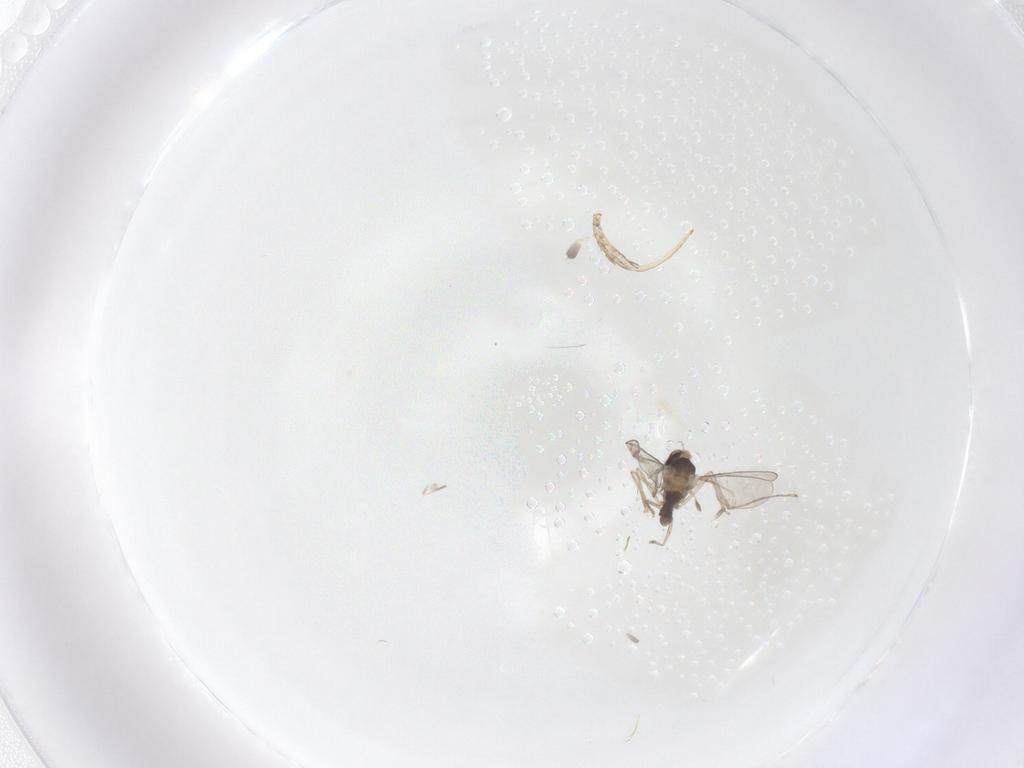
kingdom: Animalia
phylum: Arthropoda
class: Insecta
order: Diptera
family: Cecidomyiidae
